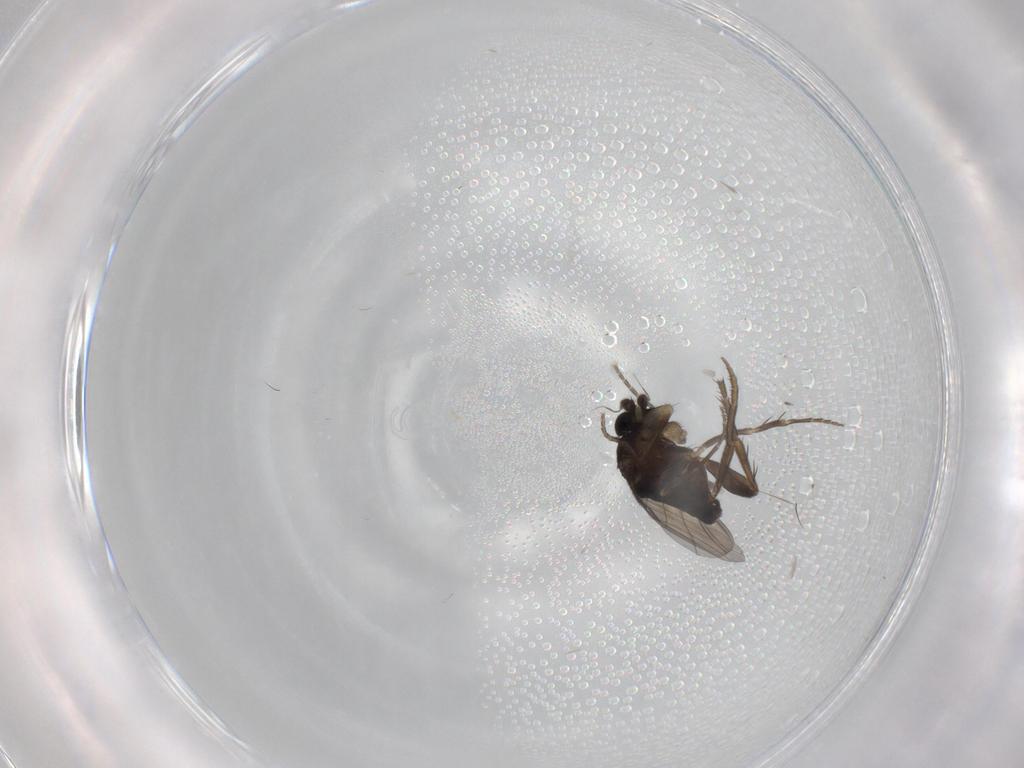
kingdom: Animalia
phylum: Arthropoda
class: Insecta
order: Diptera
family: Phoridae
